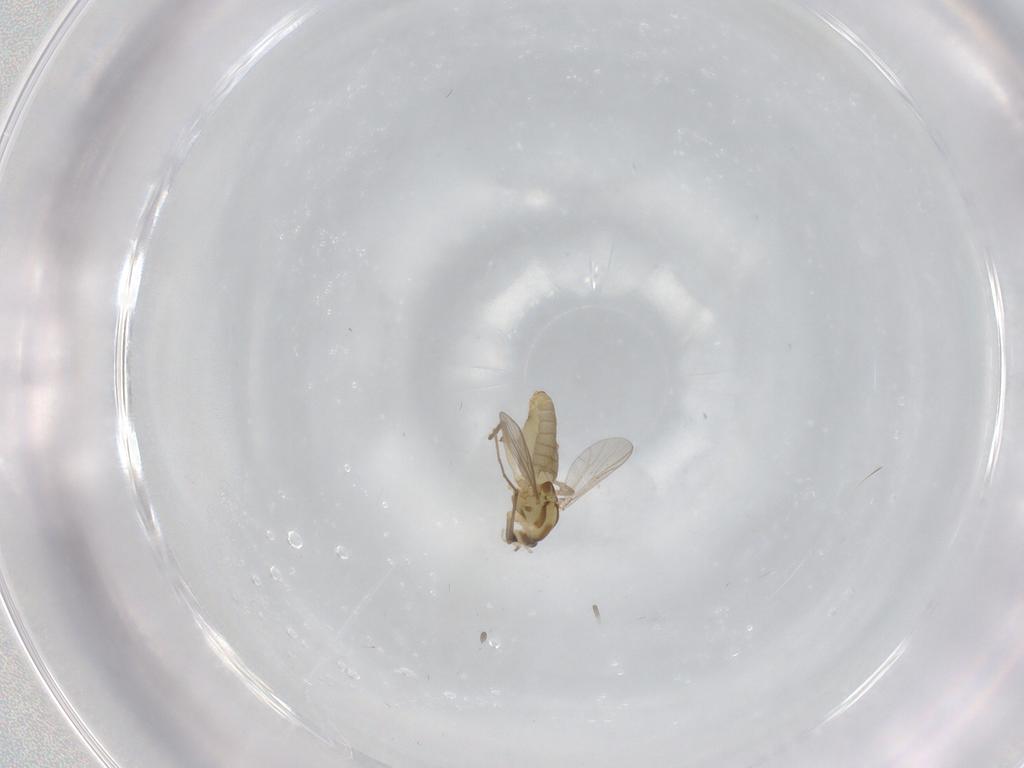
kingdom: Animalia
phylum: Arthropoda
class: Insecta
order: Diptera
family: Chironomidae
